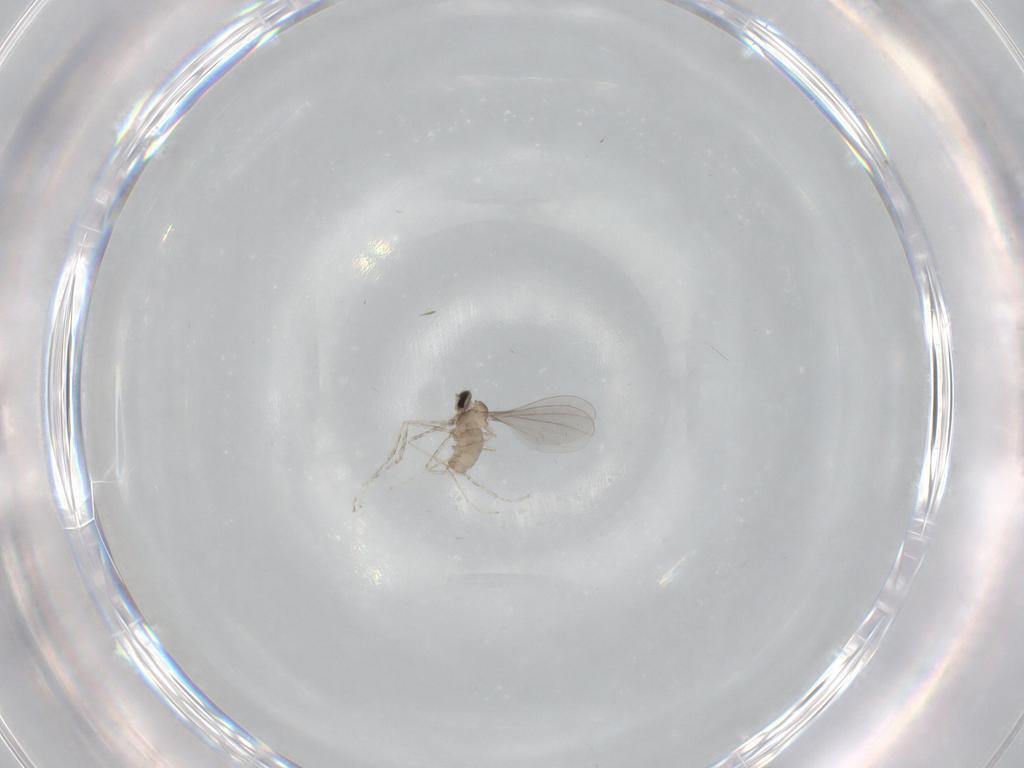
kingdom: Animalia
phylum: Arthropoda
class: Insecta
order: Diptera
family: Cecidomyiidae
